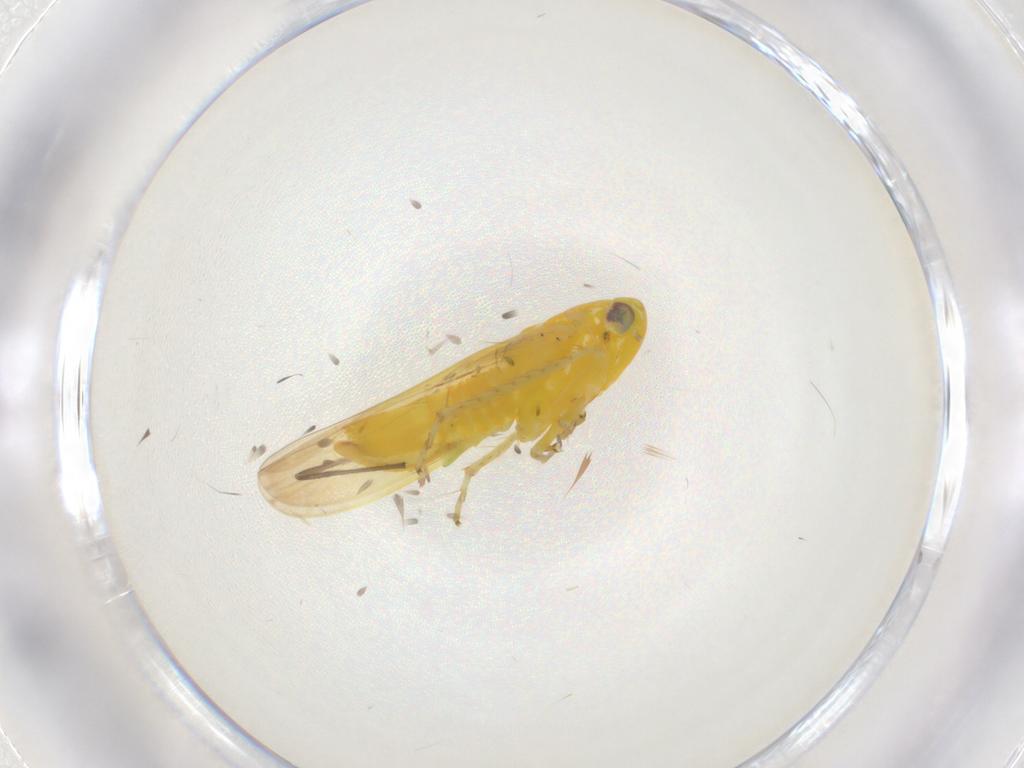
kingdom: Animalia
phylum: Arthropoda
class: Insecta
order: Hemiptera
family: Cicadellidae
